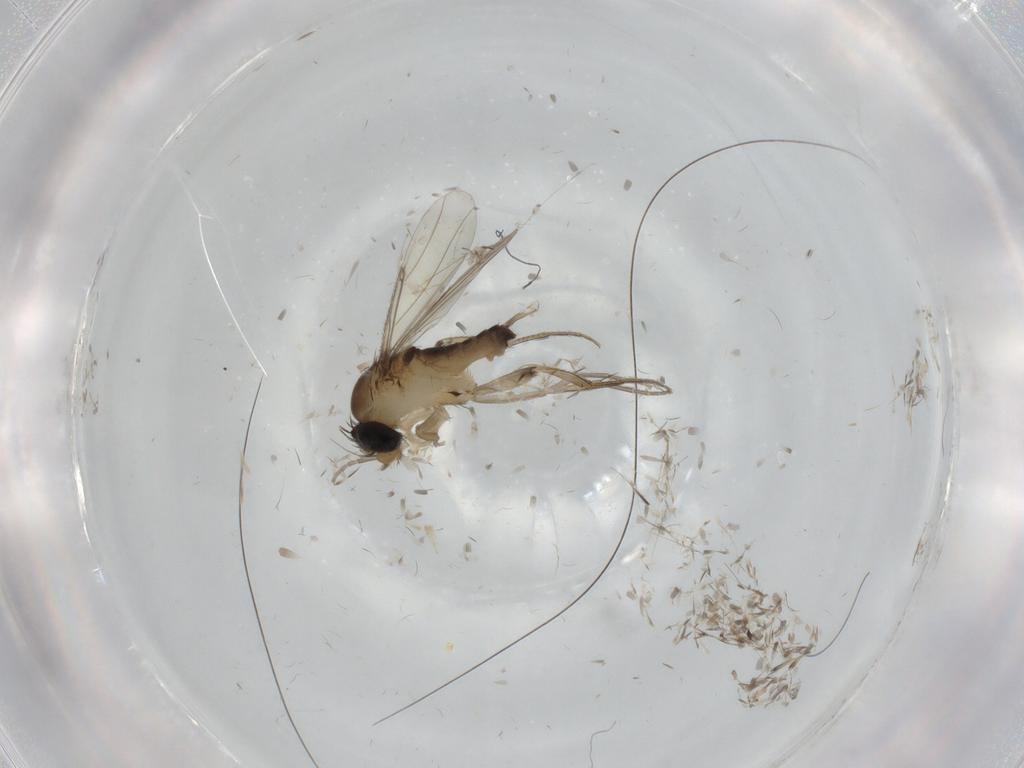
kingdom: Animalia
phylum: Arthropoda
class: Insecta
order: Diptera
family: Phoridae
